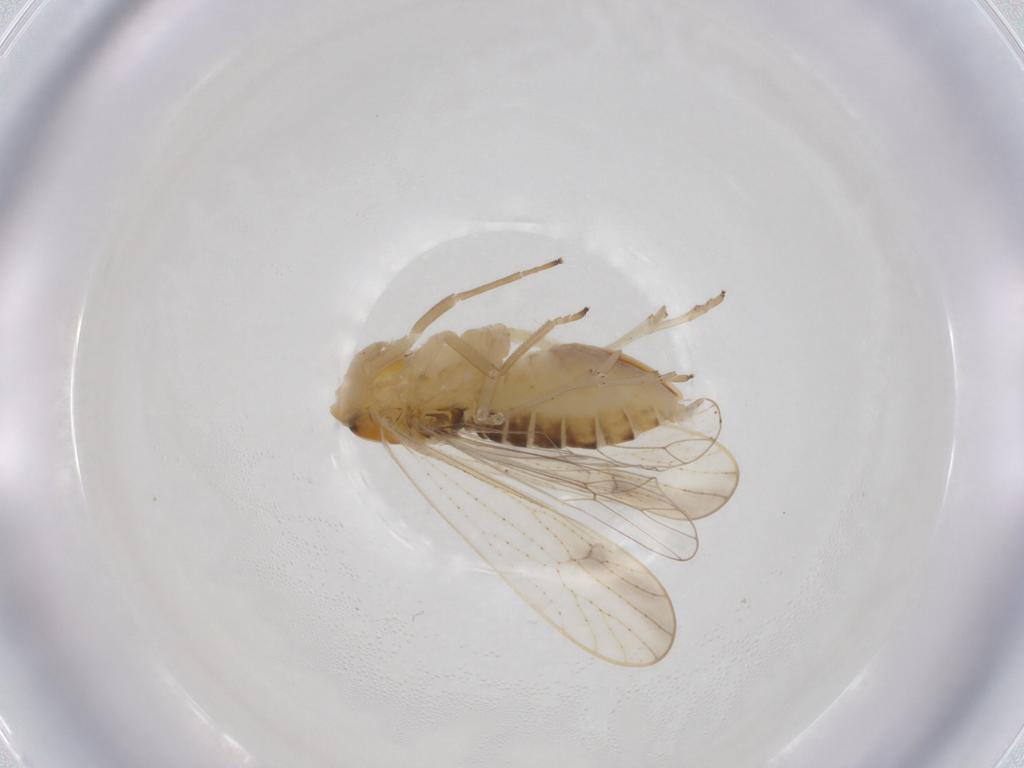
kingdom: Animalia
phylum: Arthropoda
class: Insecta
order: Hemiptera
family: Delphacidae
